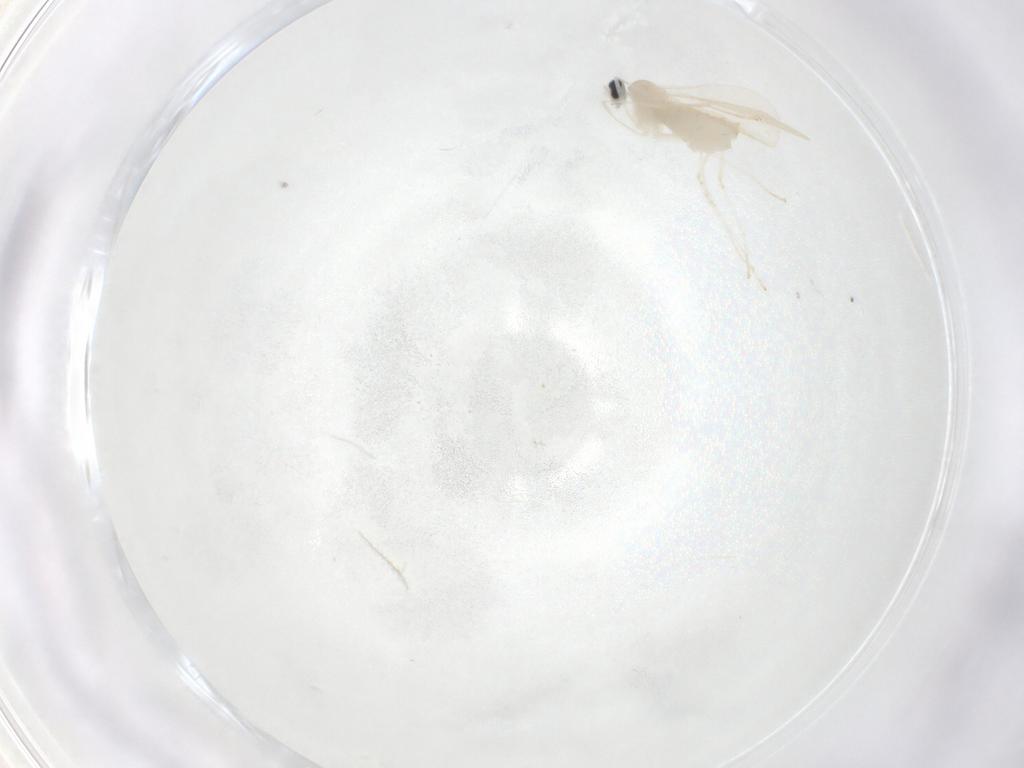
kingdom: Animalia
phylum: Arthropoda
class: Insecta
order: Diptera
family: Cecidomyiidae
